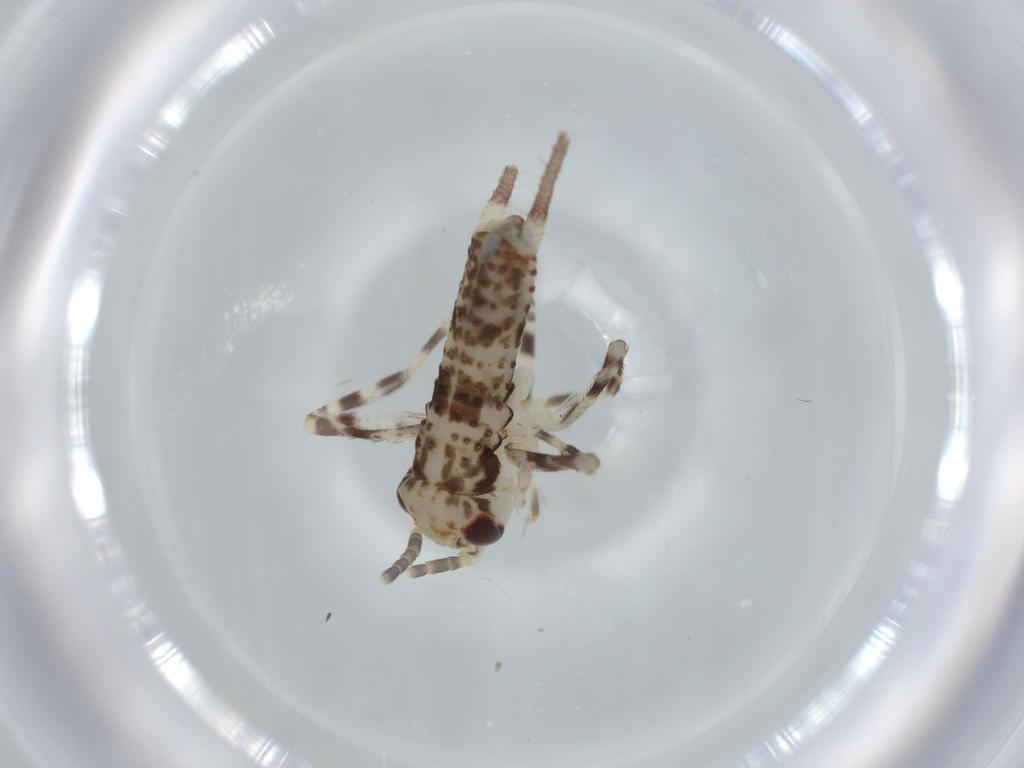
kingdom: Animalia
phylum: Arthropoda
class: Insecta
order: Orthoptera
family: Gryllidae
